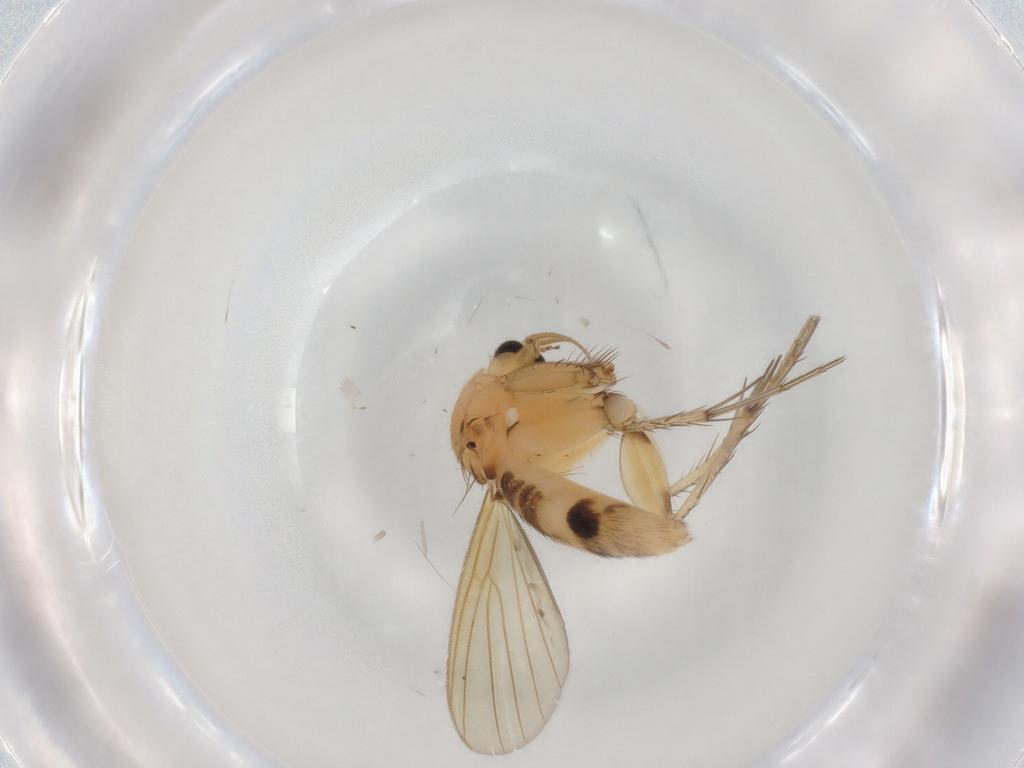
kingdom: Animalia
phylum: Arthropoda
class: Insecta
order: Diptera
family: Mycetophilidae
